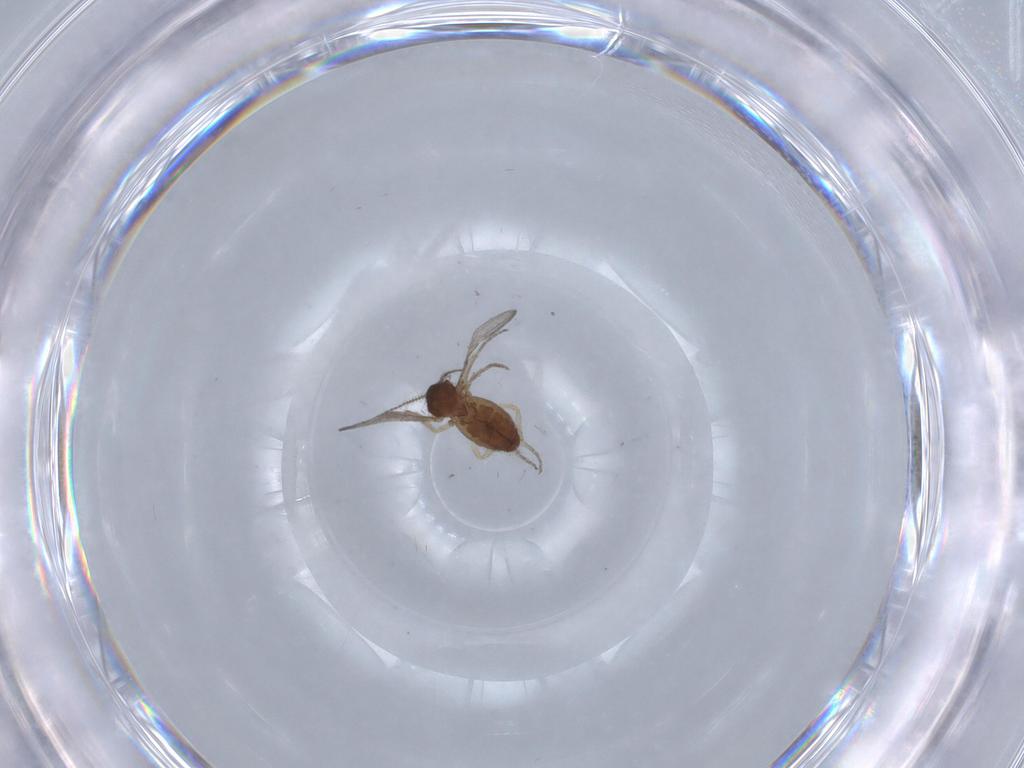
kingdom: Animalia
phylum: Arthropoda
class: Insecta
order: Diptera
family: Ceratopogonidae
